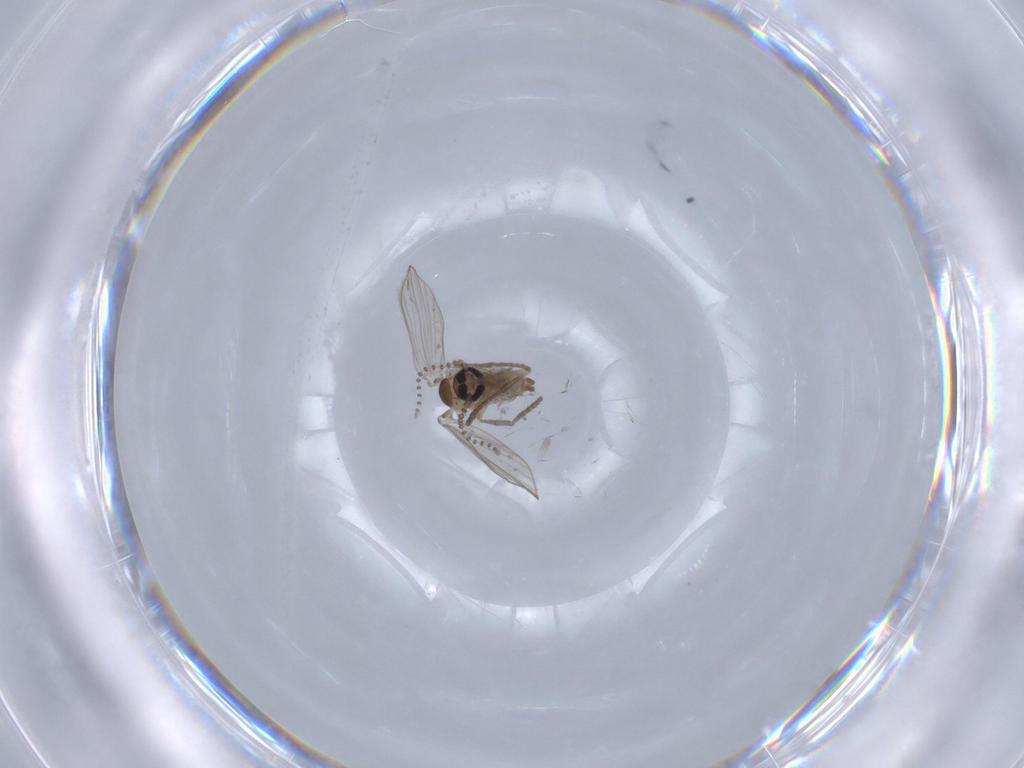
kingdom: Animalia
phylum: Arthropoda
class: Insecta
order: Diptera
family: Psychodidae
